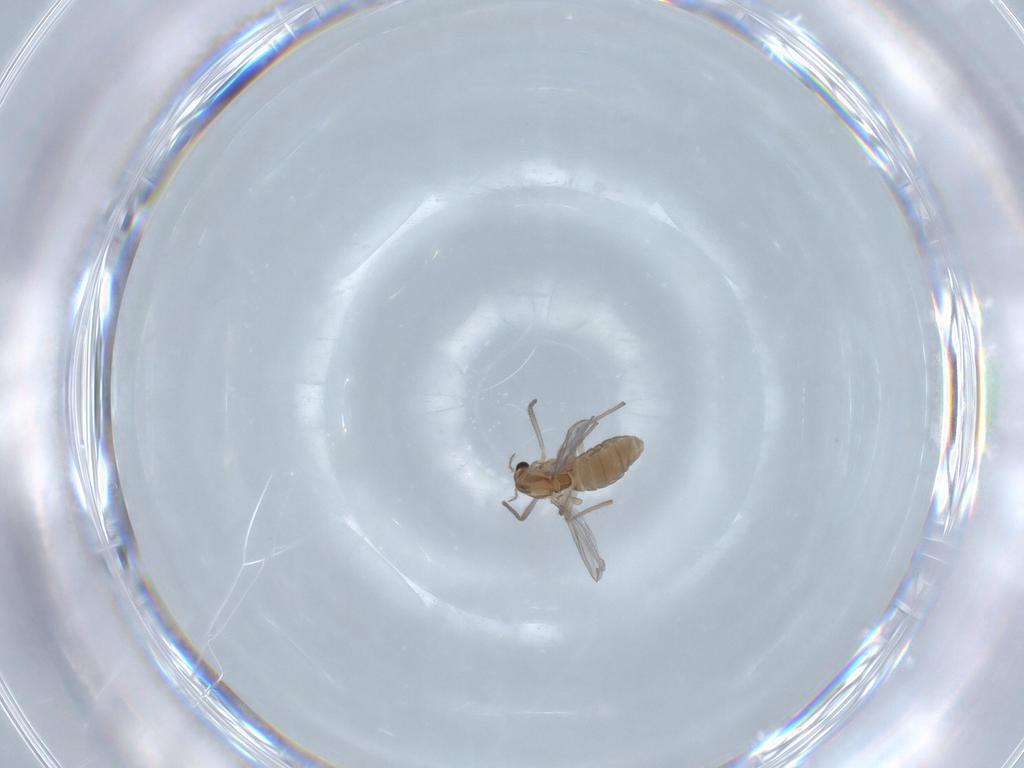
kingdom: Animalia
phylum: Arthropoda
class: Insecta
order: Diptera
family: Chironomidae
